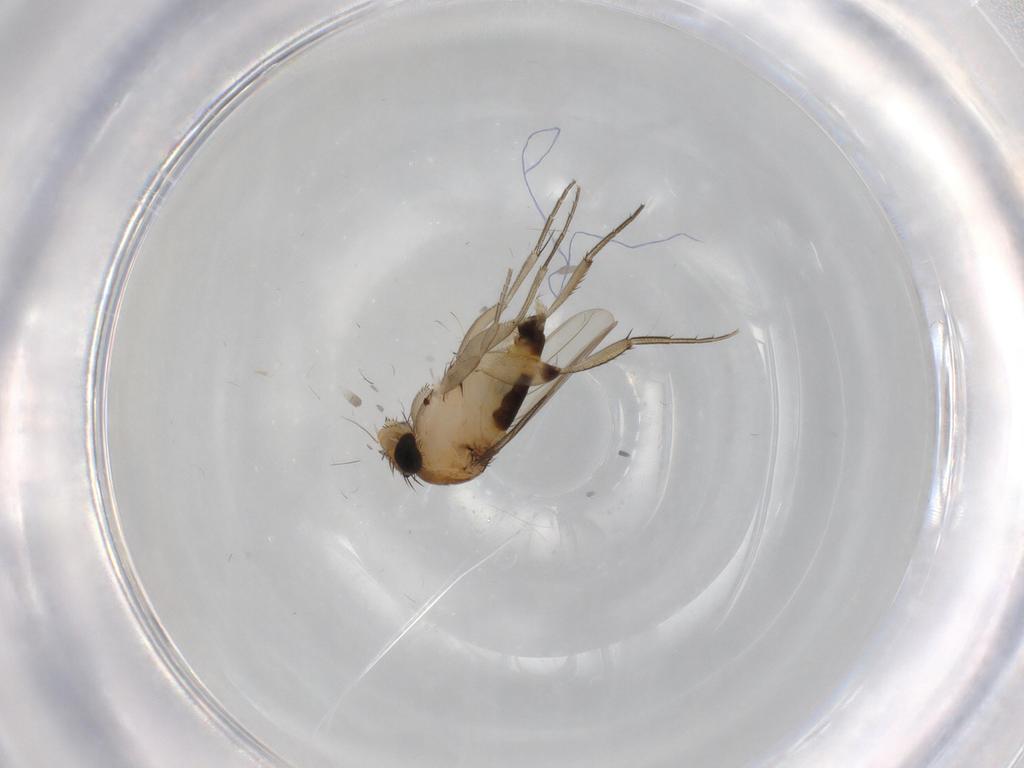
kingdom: Animalia
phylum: Arthropoda
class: Insecta
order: Diptera
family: Phoridae
